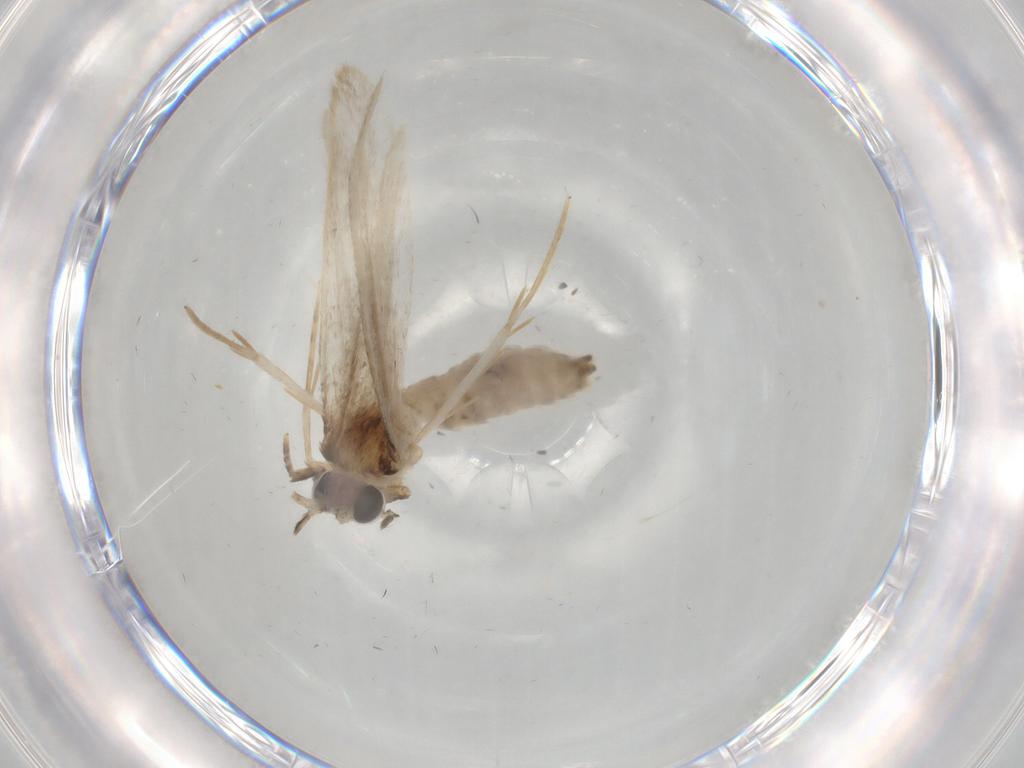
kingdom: Animalia
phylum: Arthropoda
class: Insecta
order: Lepidoptera
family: Nepticulidae
